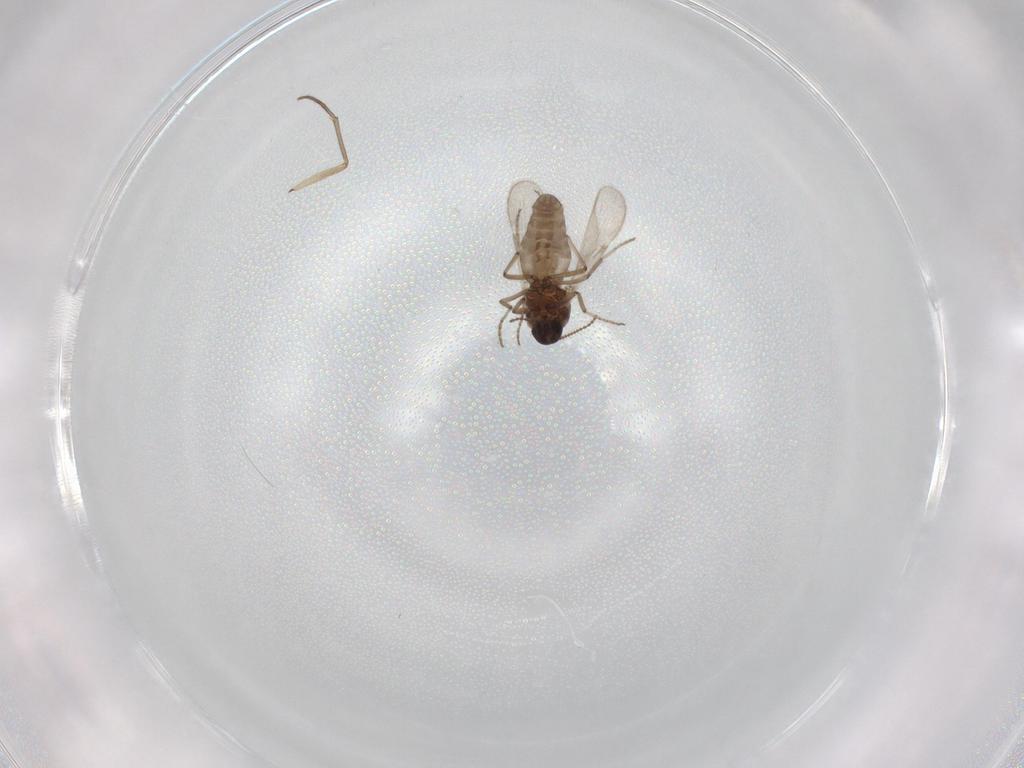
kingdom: Animalia
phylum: Arthropoda
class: Insecta
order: Diptera
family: Chironomidae
